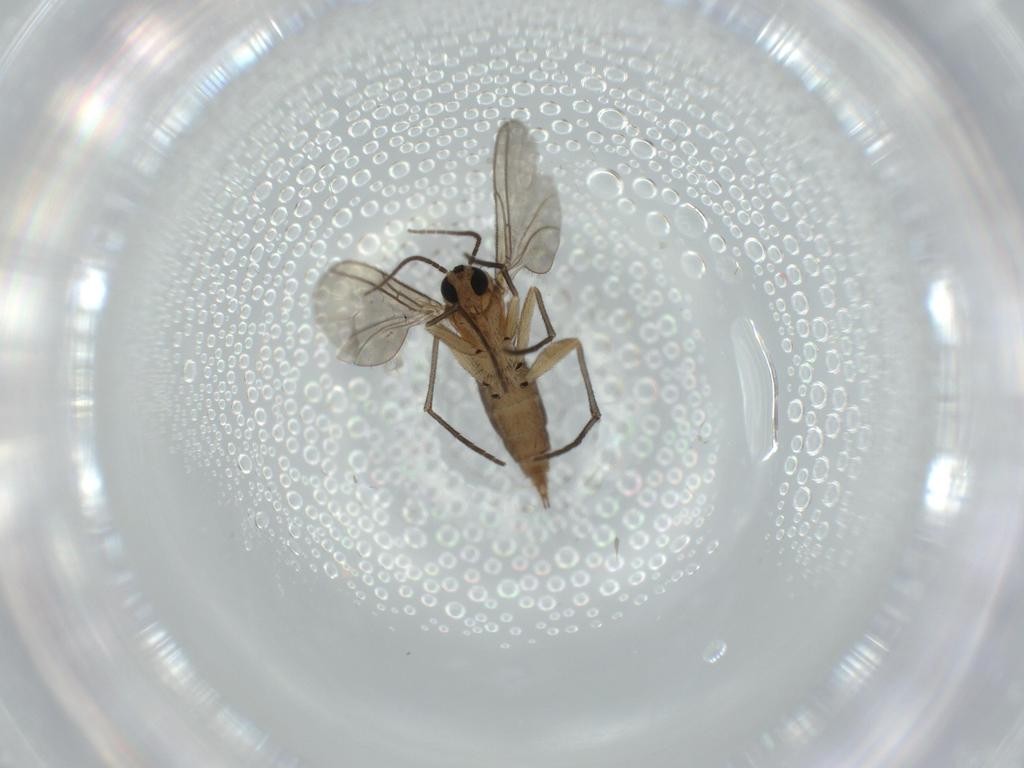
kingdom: Animalia
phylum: Arthropoda
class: Insecta
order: Diptera
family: Sciaridae
